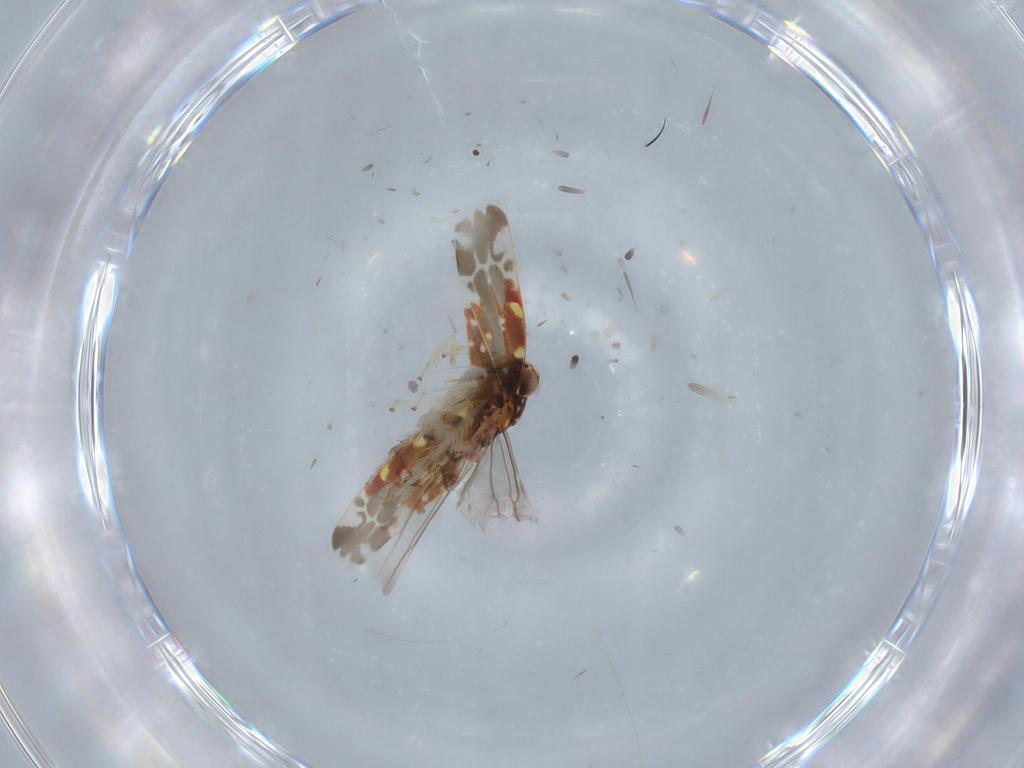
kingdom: Animalia
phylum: Arthropoda
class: Insecta
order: Hemiptera
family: Cicadellidae
